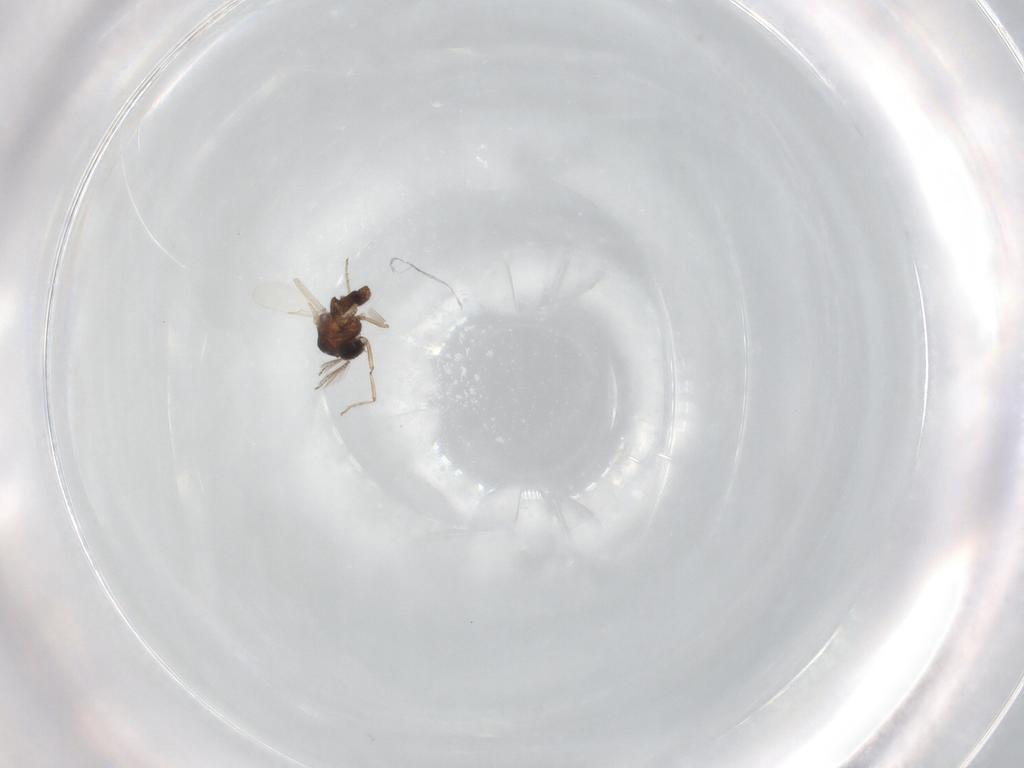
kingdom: Animalia
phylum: Arthropoda
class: Insecta
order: Diptera
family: Ceratopogonidae
